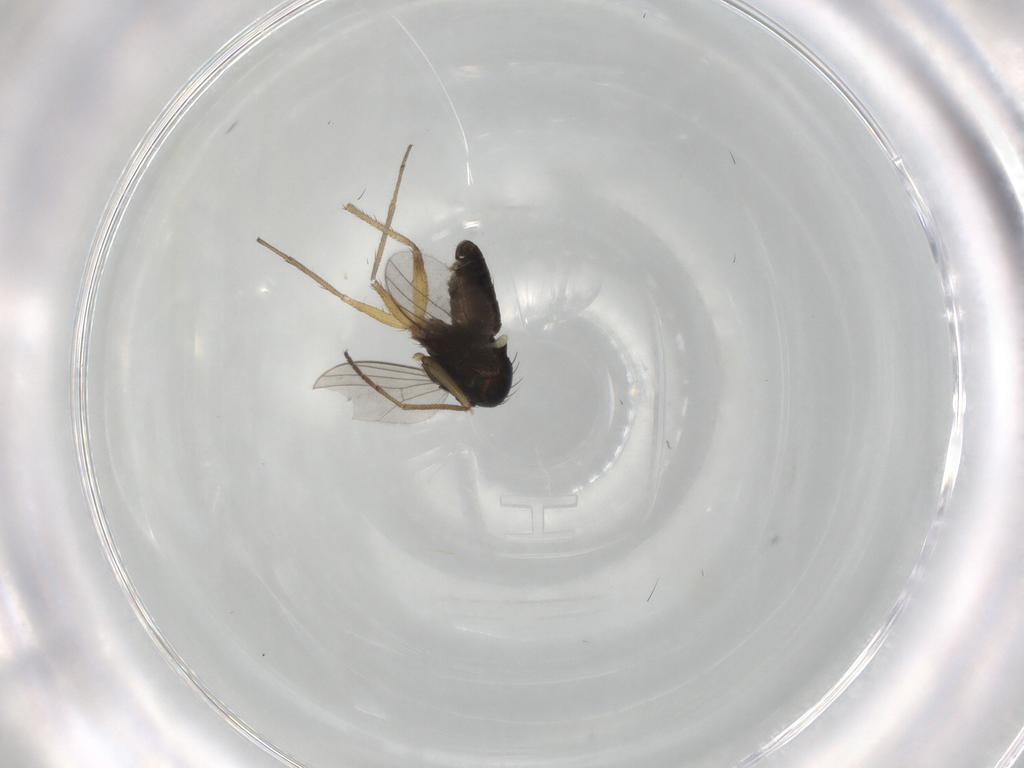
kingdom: Animalia
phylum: Arthropoda
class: Insecta
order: Diptera
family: Dolichopodidae
